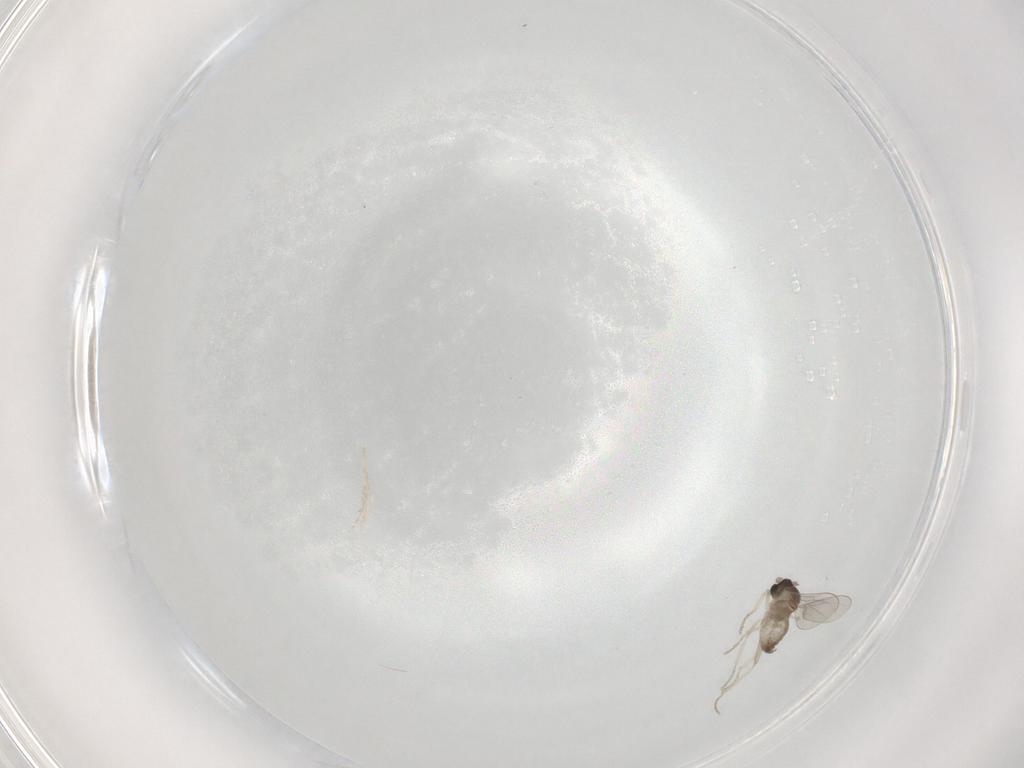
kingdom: Animalia
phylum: Arthropoda
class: Insecta
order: Diptera
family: Cecidomyiidae
